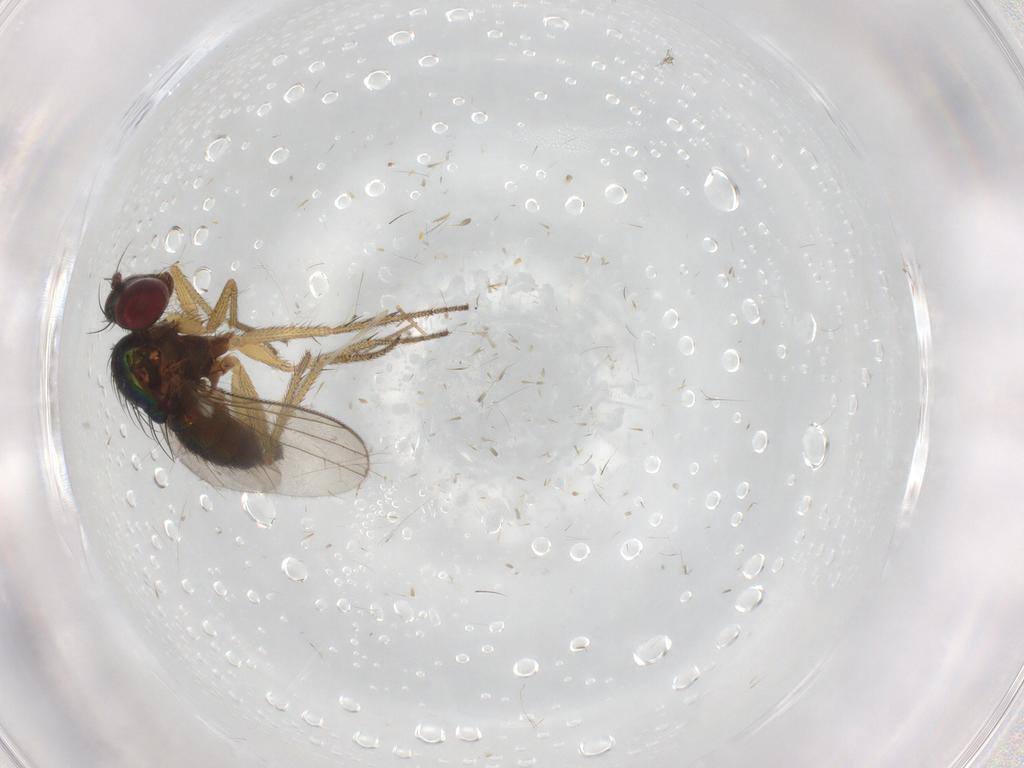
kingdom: Animalia
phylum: Arthropoda
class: Insecta
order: Diptera
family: Dolichopodidae
